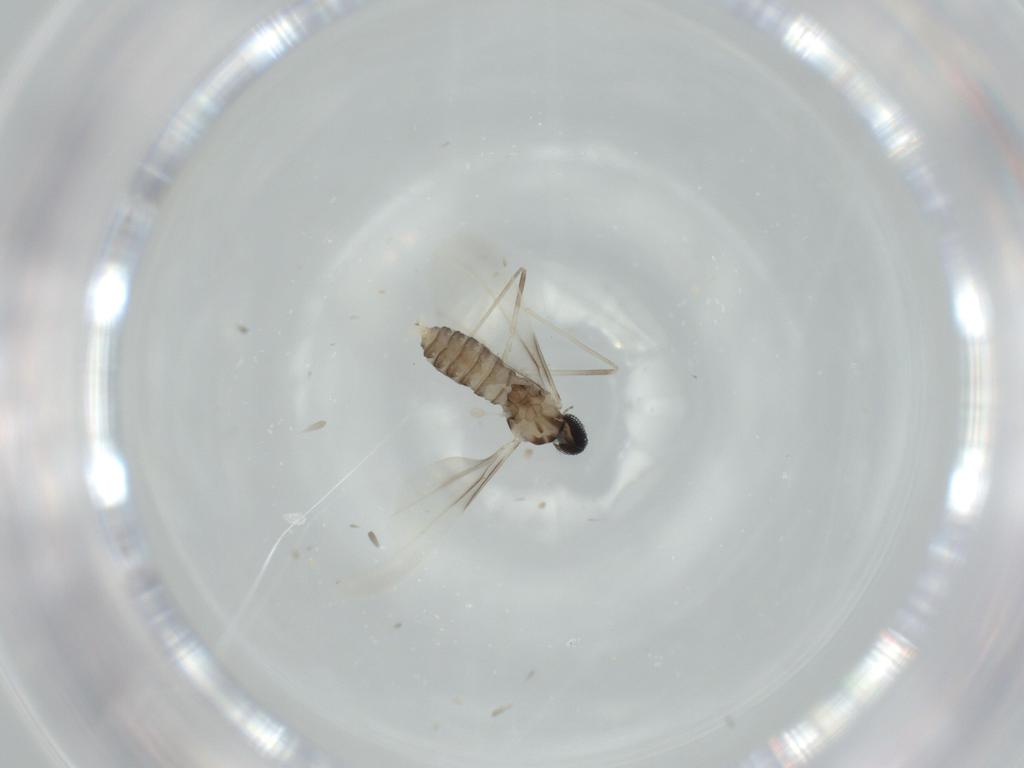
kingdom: Animalia
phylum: Arthropoda
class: Insecta
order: Diptera
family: Cecidomyiidae
